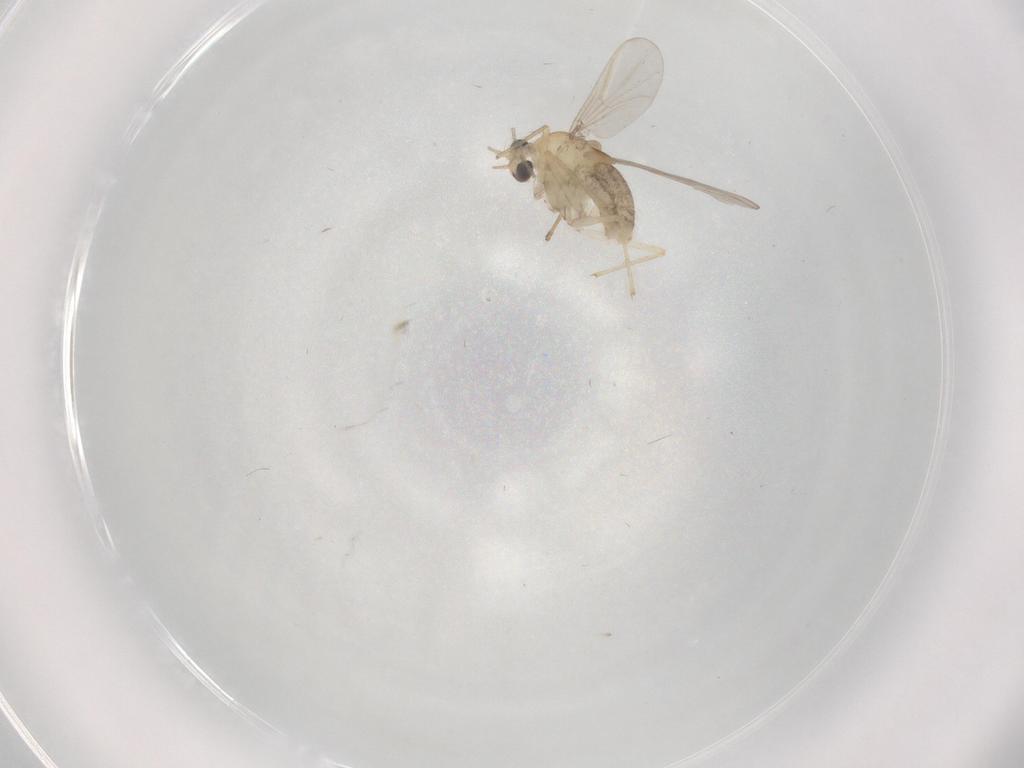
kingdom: Animalia
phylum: Arthropoda
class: Insecta
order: Diptera
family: Chironomidae
